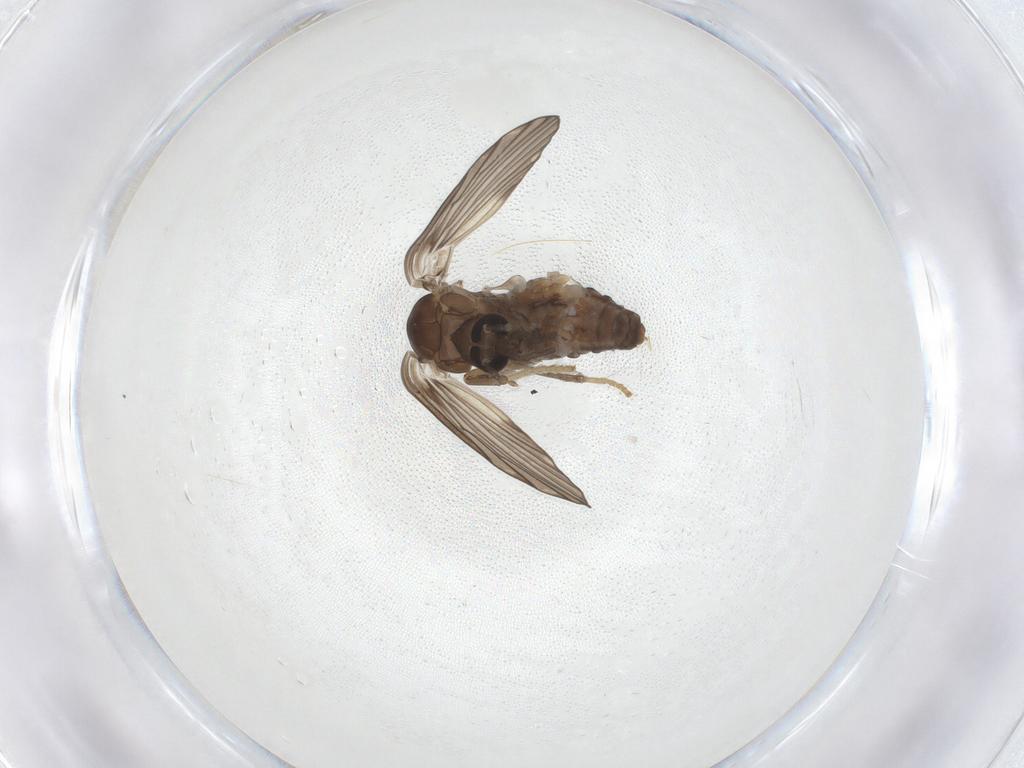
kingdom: Animalia
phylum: Arthropoda
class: Insecta
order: Diptera
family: Psychodidae
